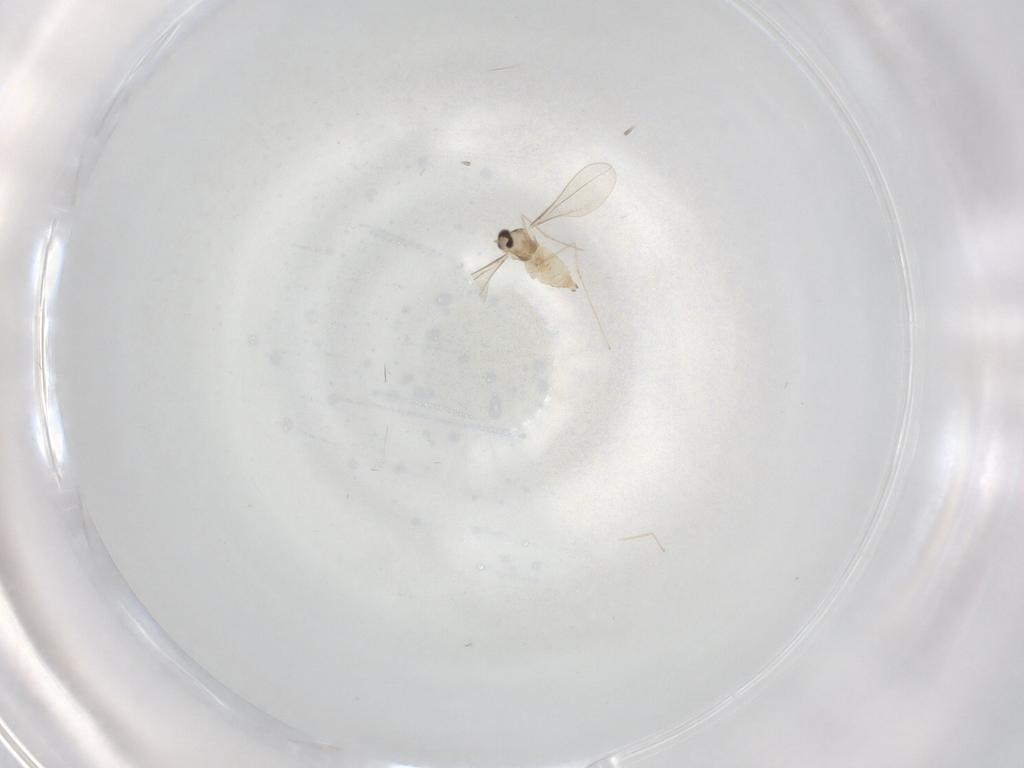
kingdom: Animalia
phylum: Arthropoda
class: Insecta
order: Diptera
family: Cecidomyiidae
